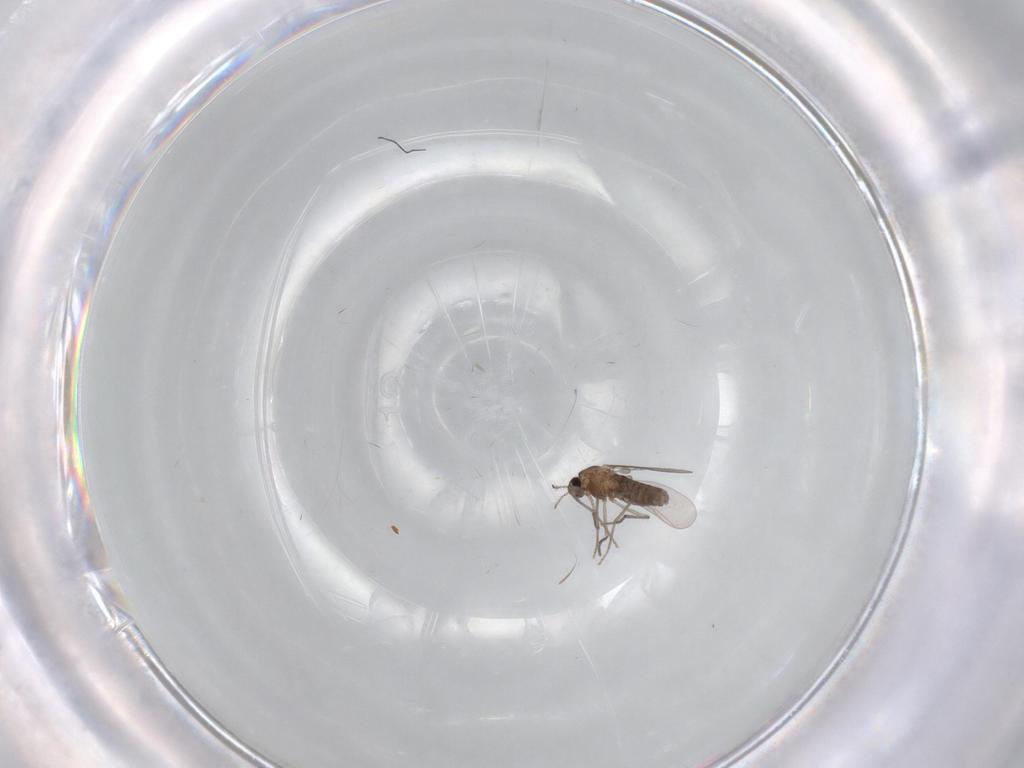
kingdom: Animalia
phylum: Arthropoda
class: Insecta
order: Diptera
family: Chironomidae
